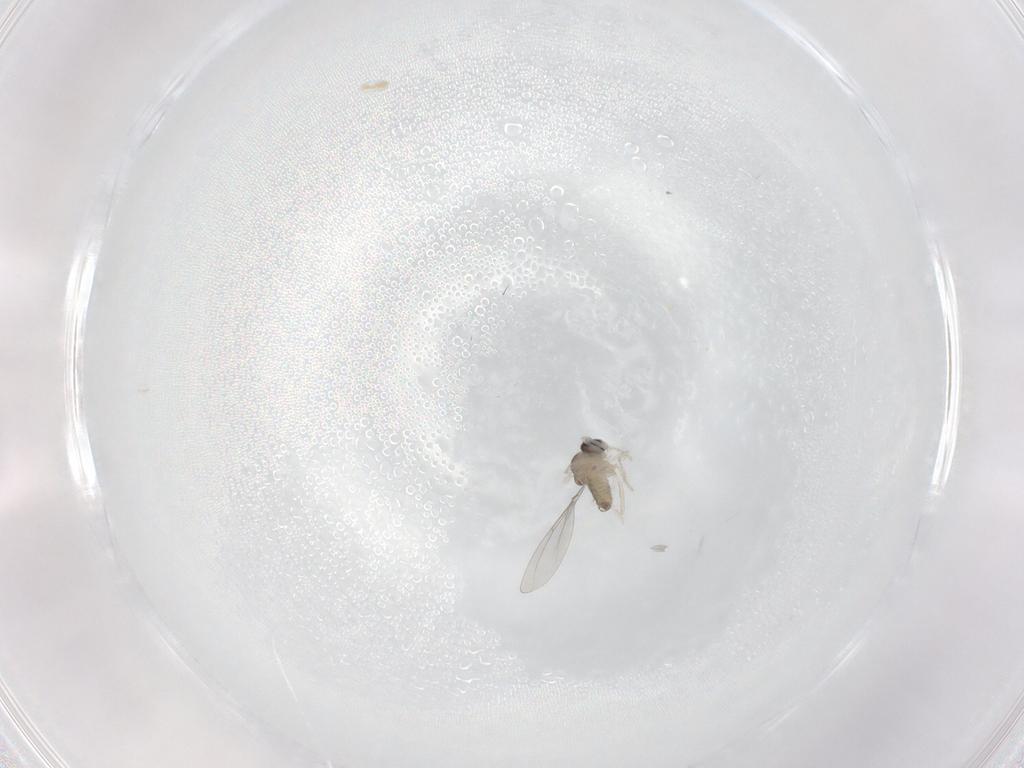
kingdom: Animalia
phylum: Arthropoda
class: Insecta
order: Diptera
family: Cecidomyiidae
